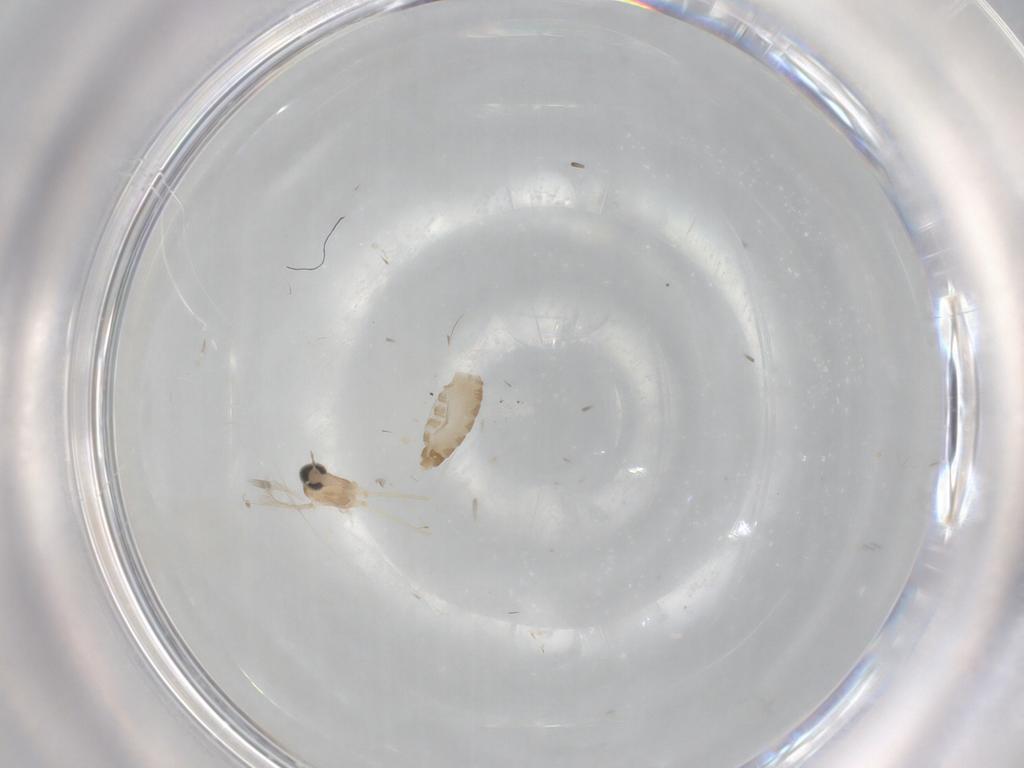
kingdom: Animalia
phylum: Arthropoda
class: Insecta
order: Diptera
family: Cecidomyiidae
